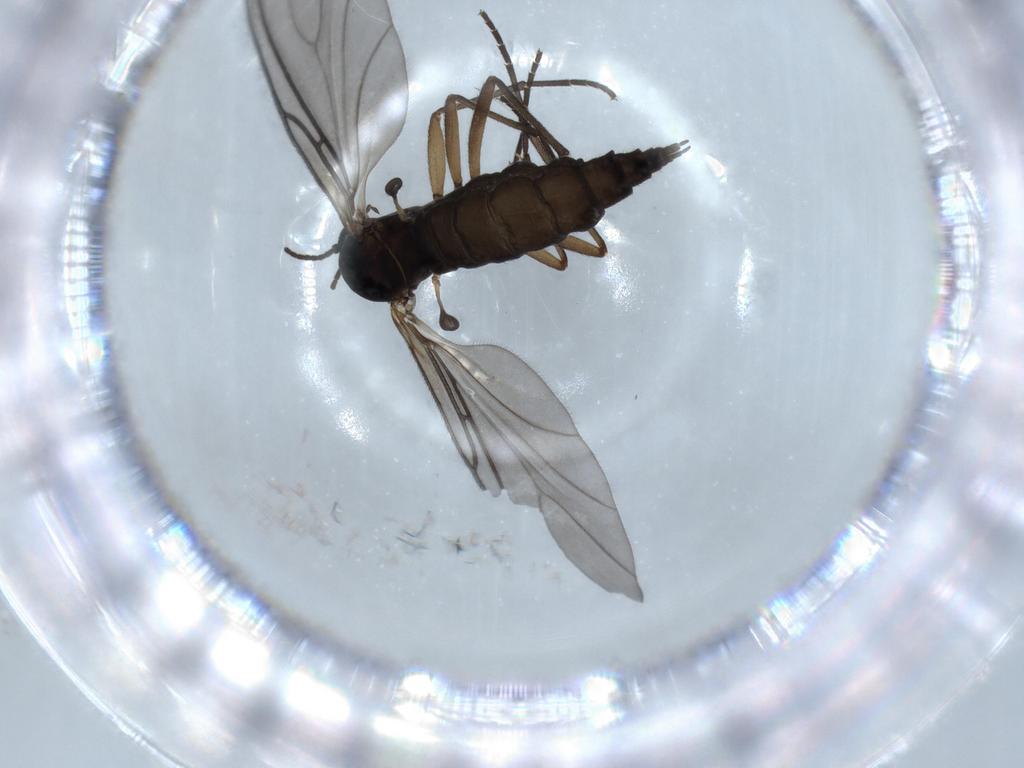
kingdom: Animalia
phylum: Arthropoda
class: Insecta
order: Diptera
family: Sciaridae
